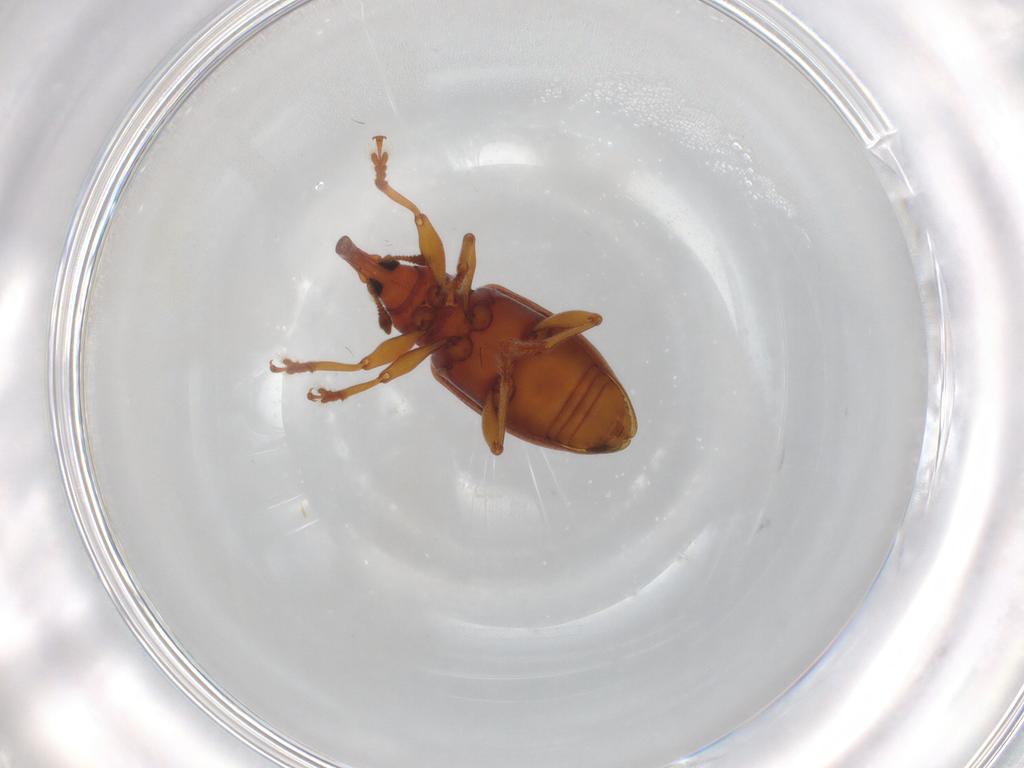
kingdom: Animalia
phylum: Arthropoda
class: Insecta
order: Coleoptera
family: Curculionidae
